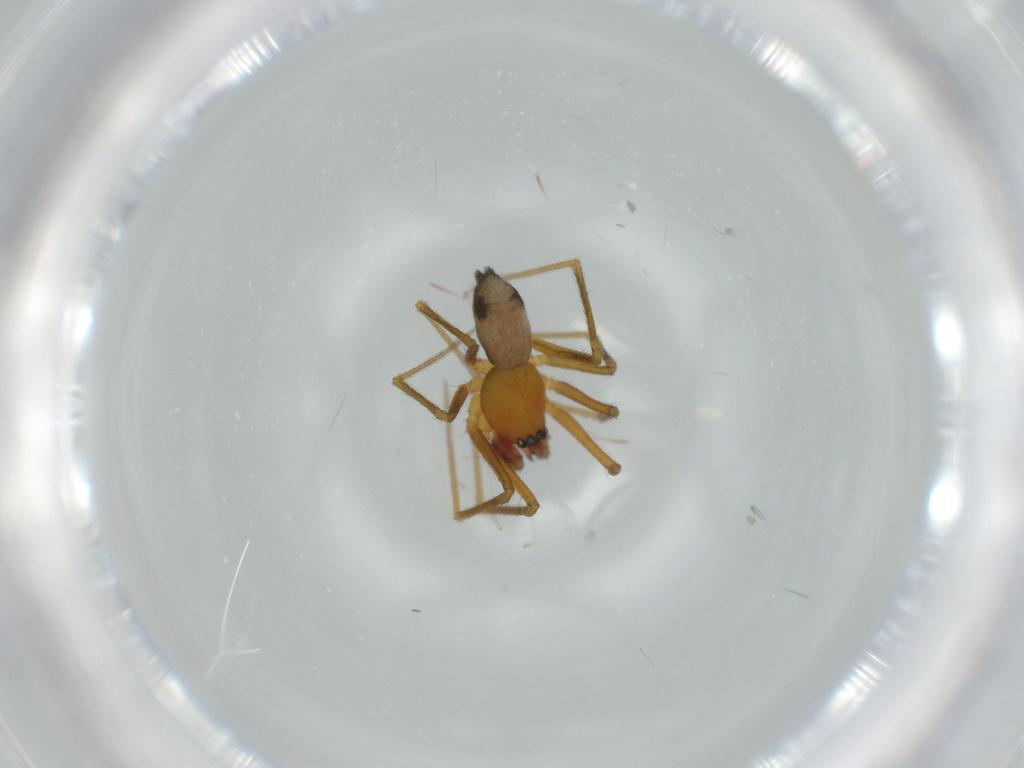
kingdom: Animalia
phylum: Arthropoda
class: Arachnida
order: Araneae
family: Linyphiidae
